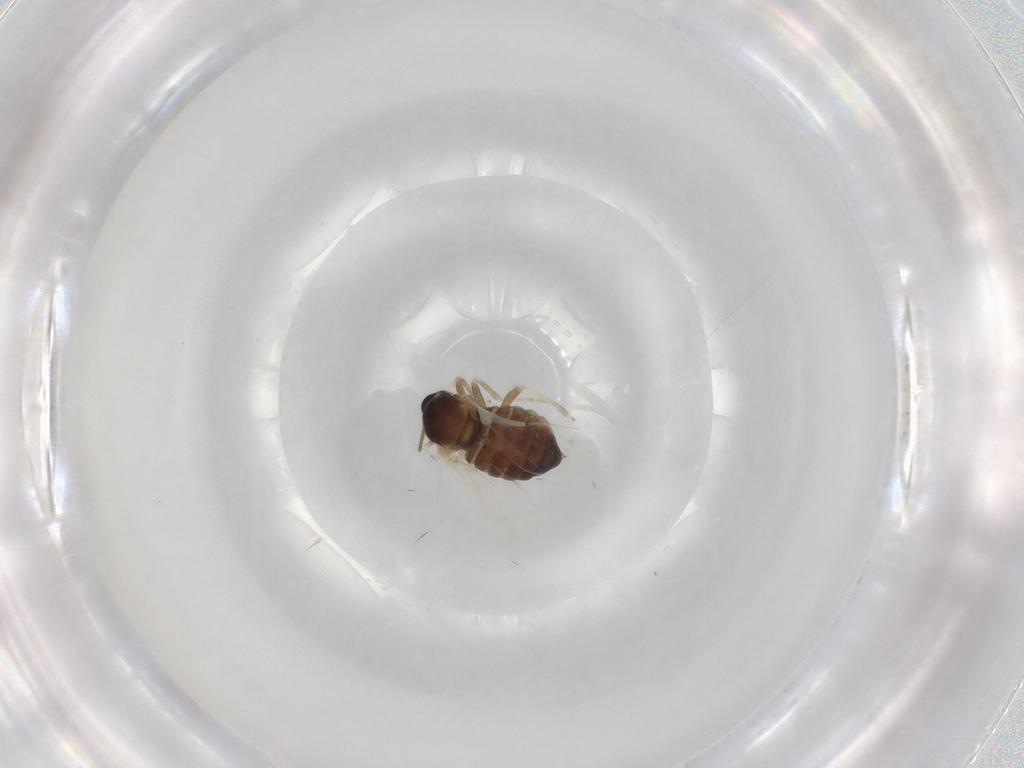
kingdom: Animalia
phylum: Arthropoda
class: Insecta
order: Diptera
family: Cecidomyiidae
